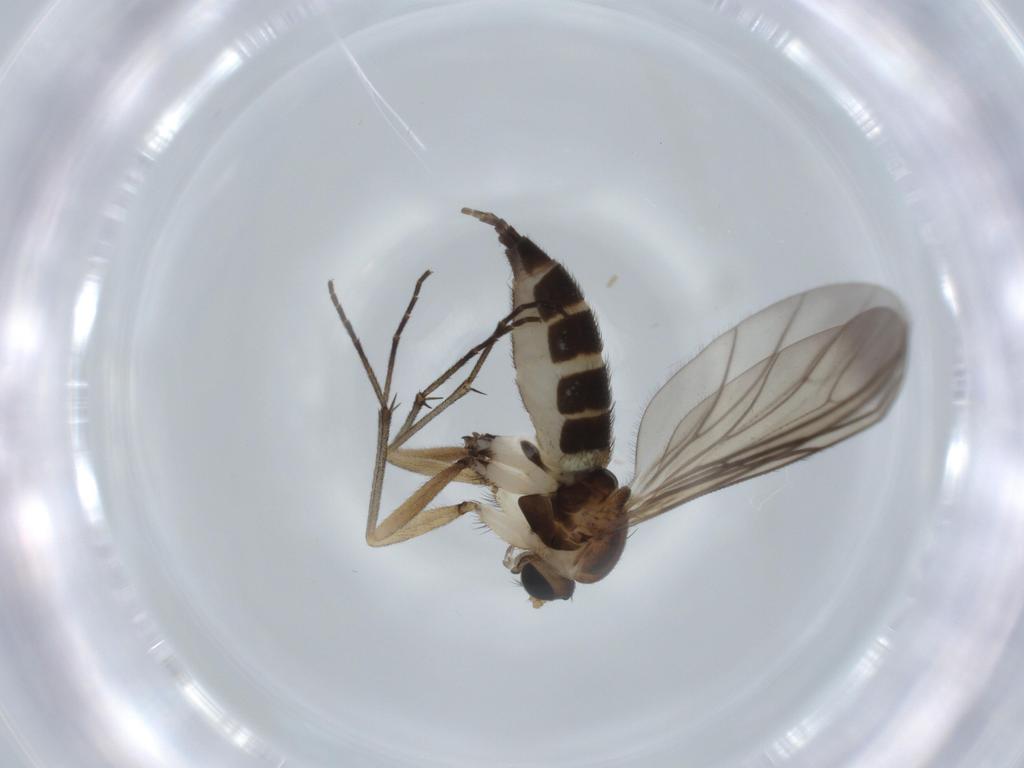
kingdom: Animalia
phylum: Arthropoda
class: Insecta
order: Diptera
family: Sciaridae
